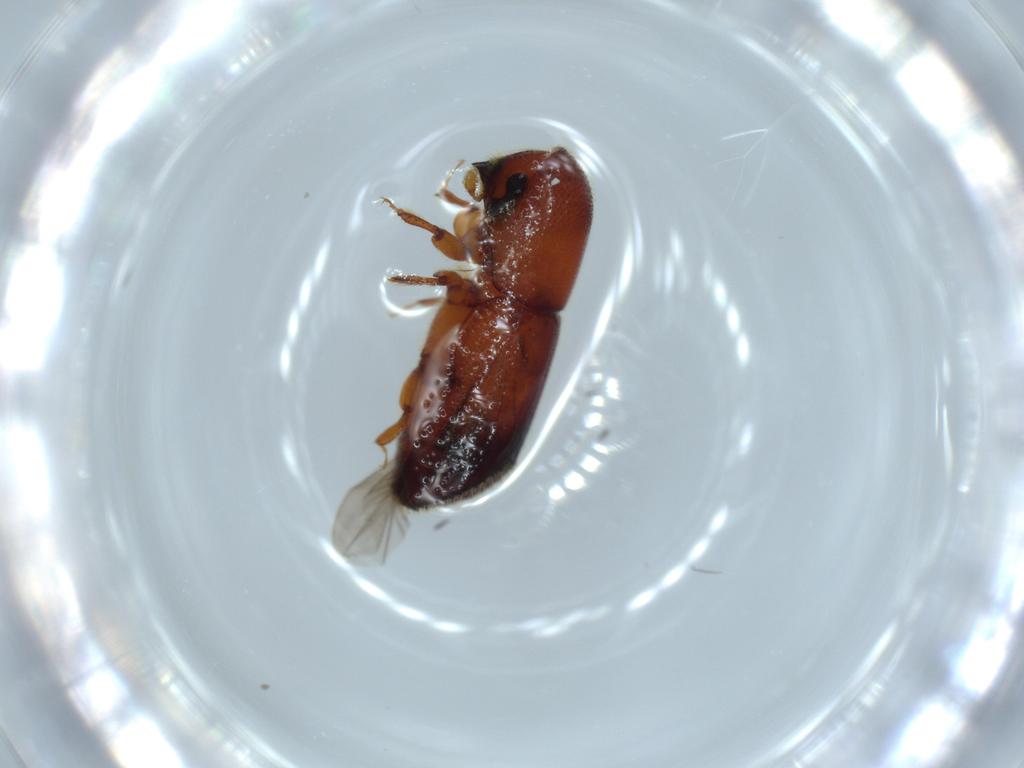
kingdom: Animalia
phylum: Arthropoda
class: Insecta
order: Coleoptera
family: Curculionidae
